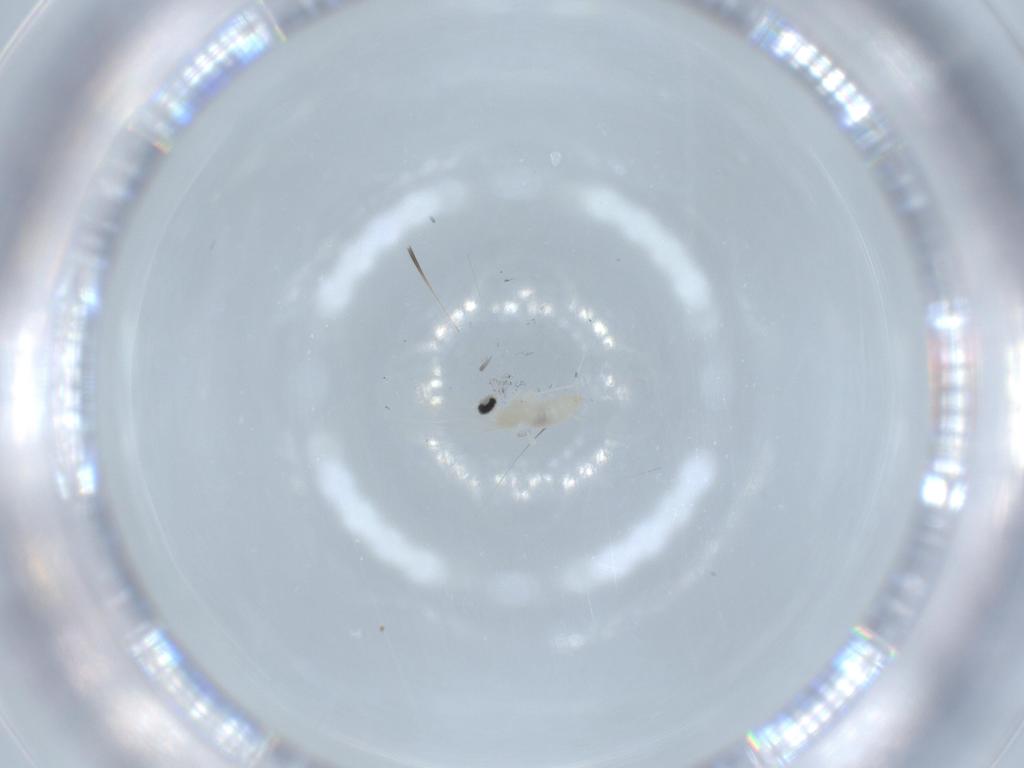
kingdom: Animalia
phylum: Arthropoda
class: Insecta
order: Diptera
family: Cecidomyiidae
